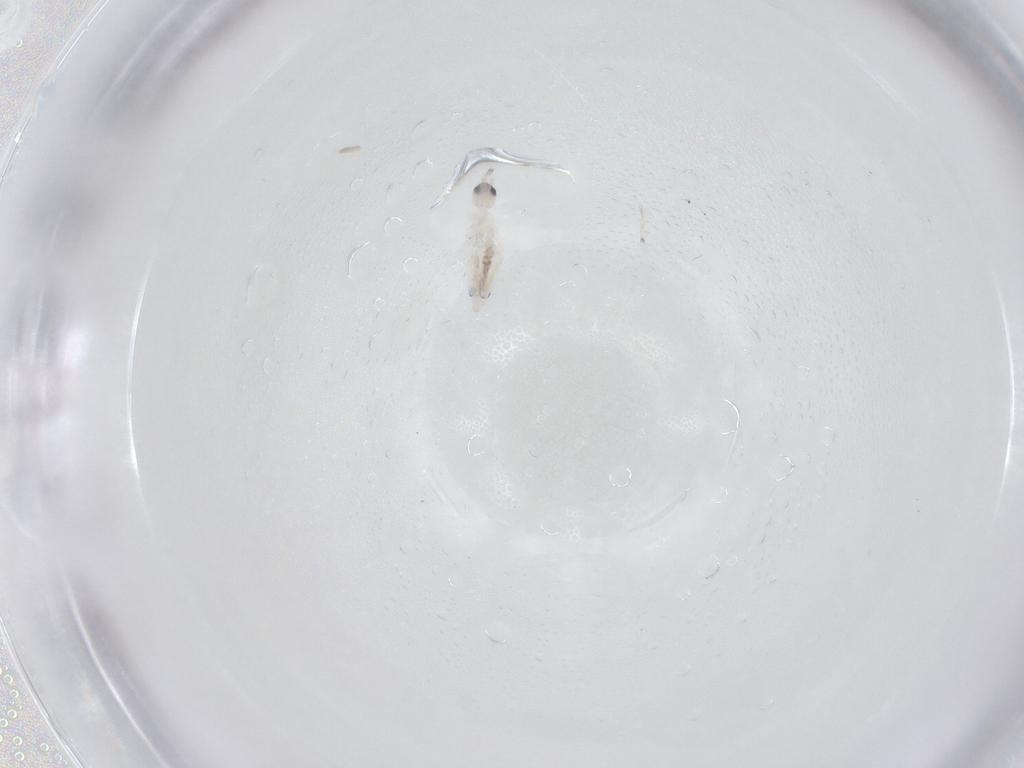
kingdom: Animalia
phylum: Arthropoda
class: Collembola
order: Entomobryomorpha
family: Entomobryidae
